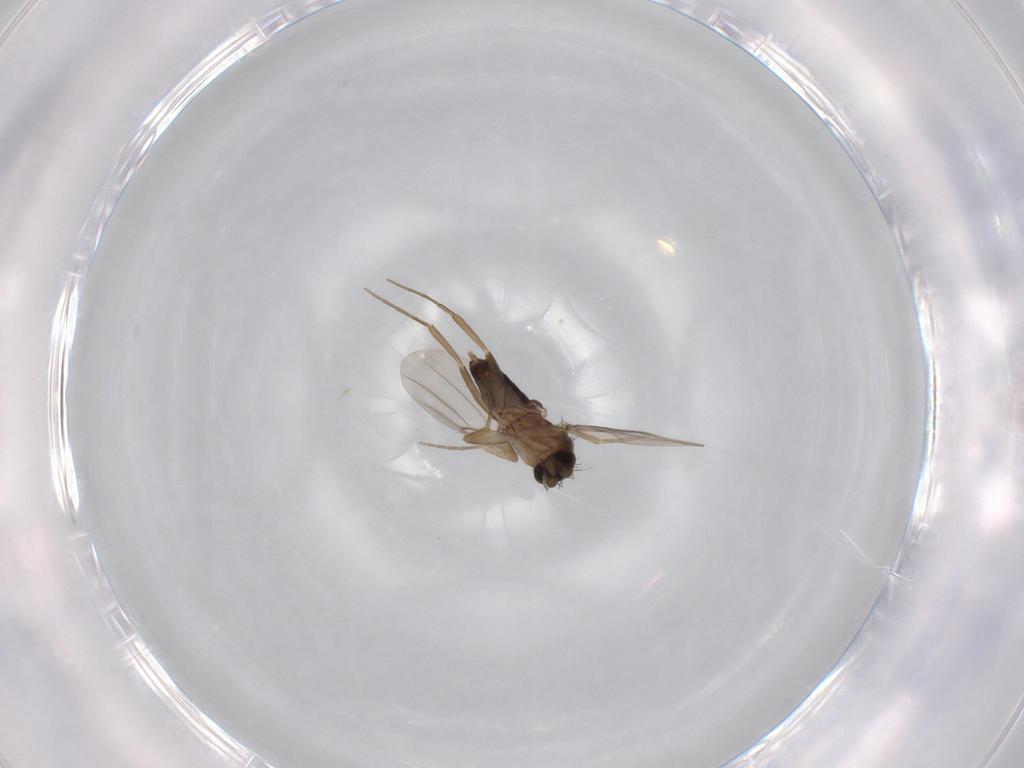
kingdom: Animalia
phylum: Arthropoda
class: Insecta
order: Diptera
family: Phoridae
